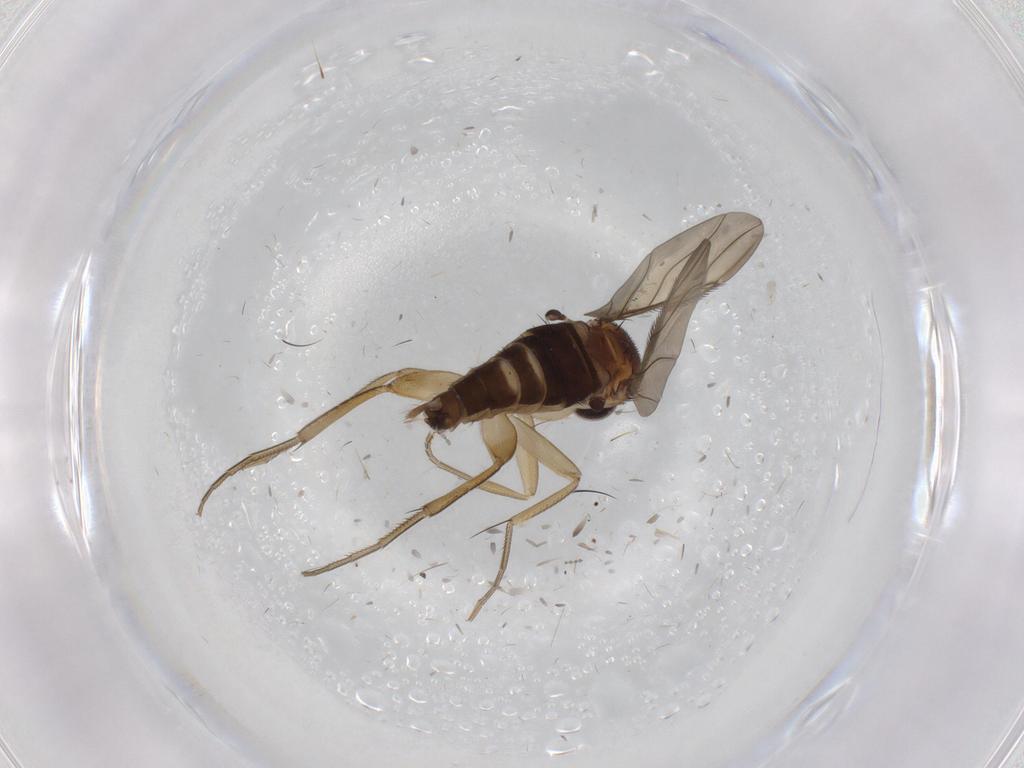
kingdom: Animalia
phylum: Arthropoda
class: Insecta
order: Diptera
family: Phoridae
